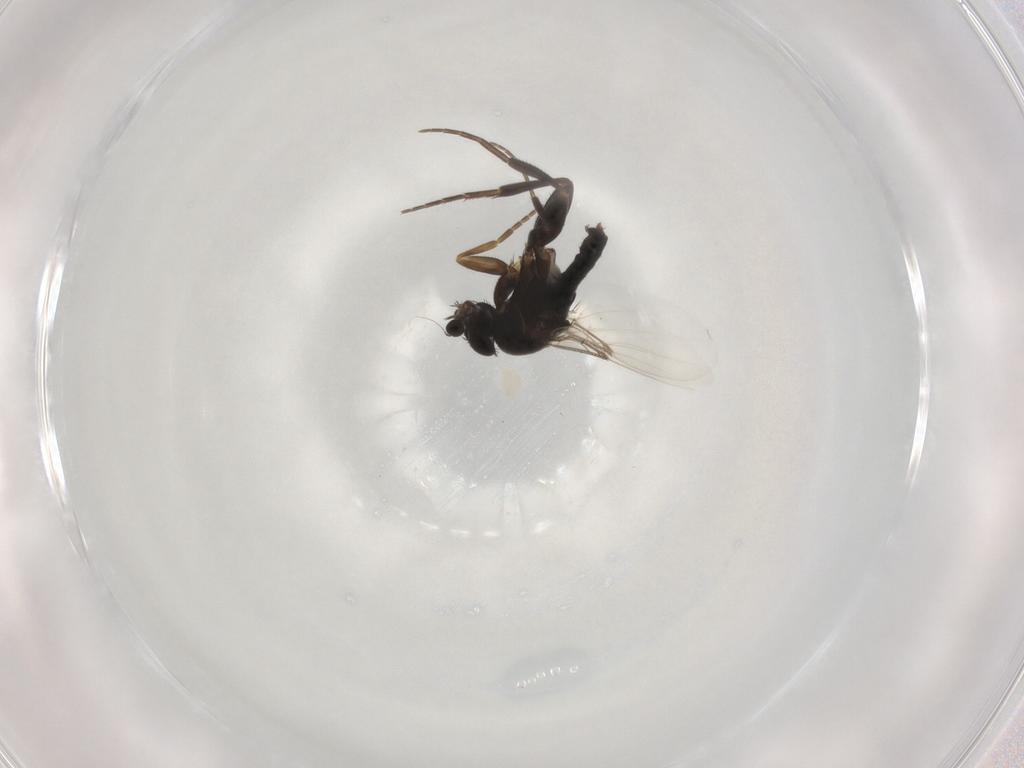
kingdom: Animalia
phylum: Arthropoda
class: Insecta
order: Diptera
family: Phoridae
